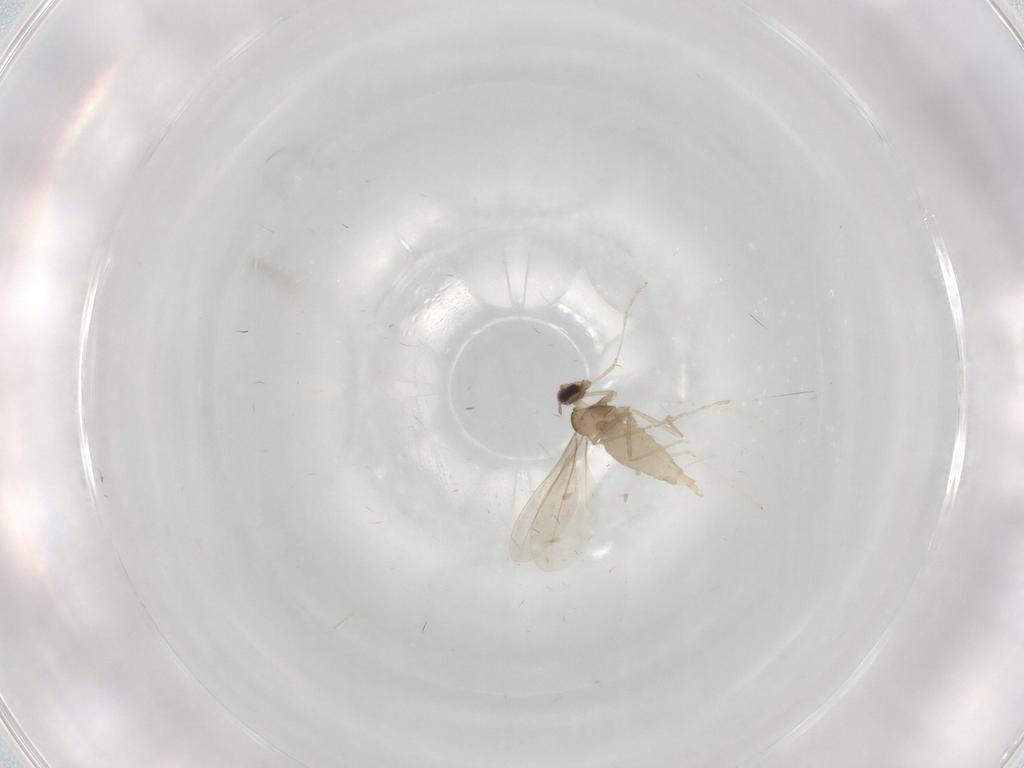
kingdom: Animalia
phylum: Arthropoda
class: Insecta
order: Diptera
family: Cecidomyiidae
